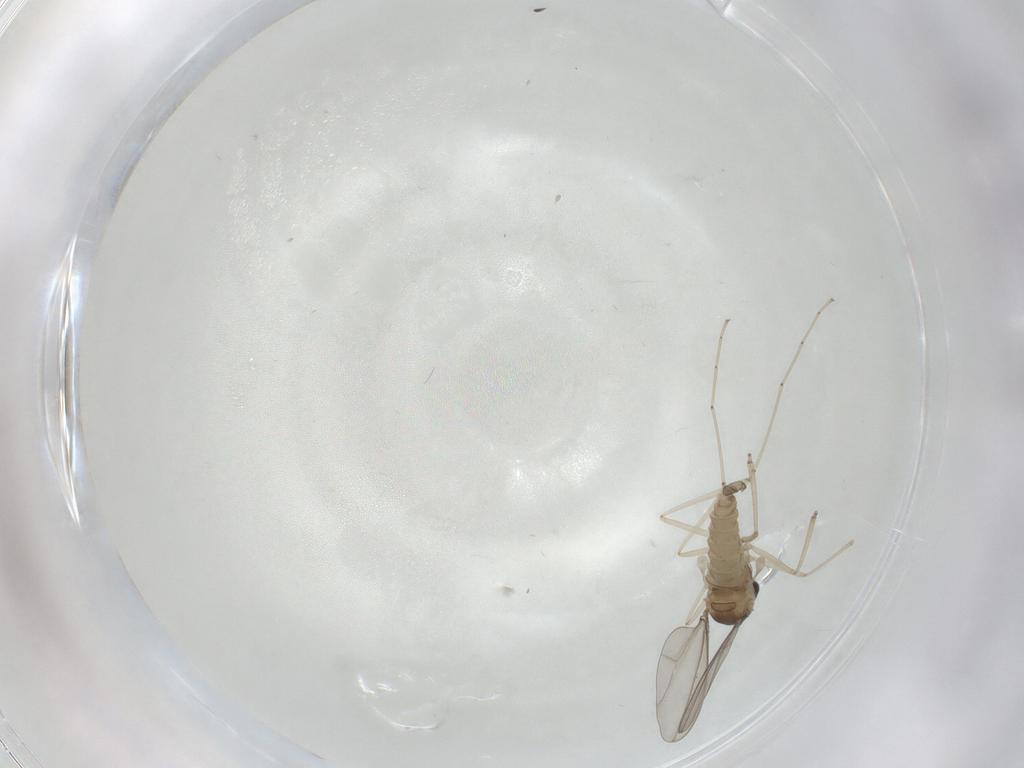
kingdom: Animalia
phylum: Arthropoda
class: Insecta
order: Diptera
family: Cecidomyiidae
